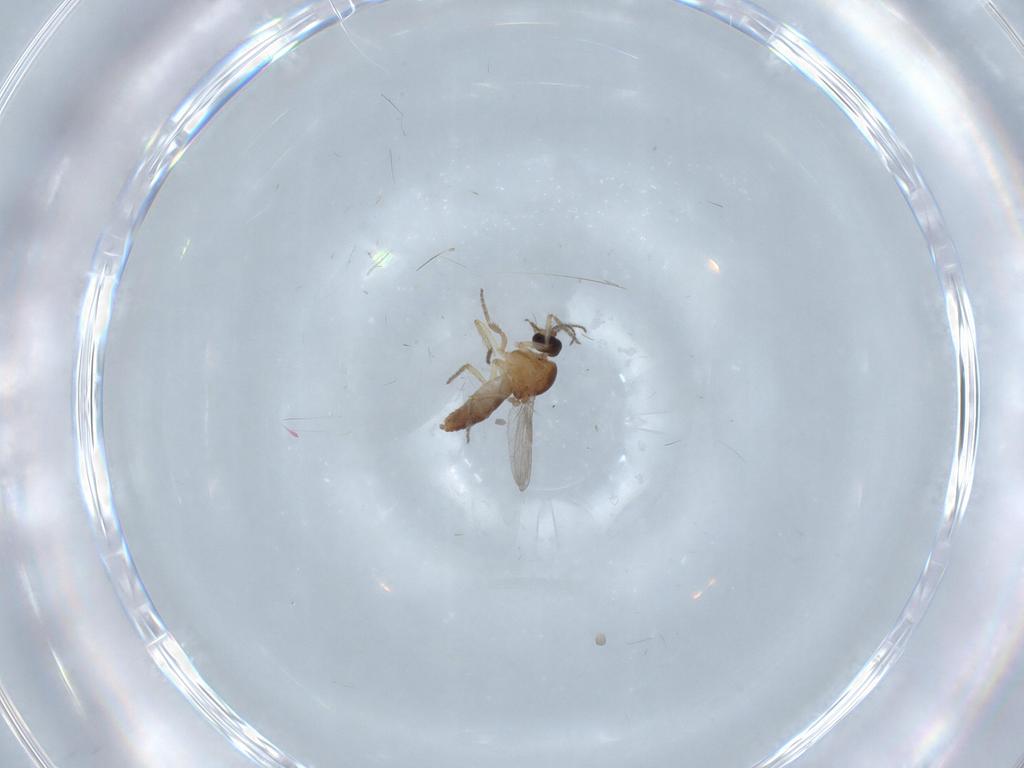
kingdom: Animalia
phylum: Arthropoda
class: Insecta
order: Diptera
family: Ceratopogonidae
